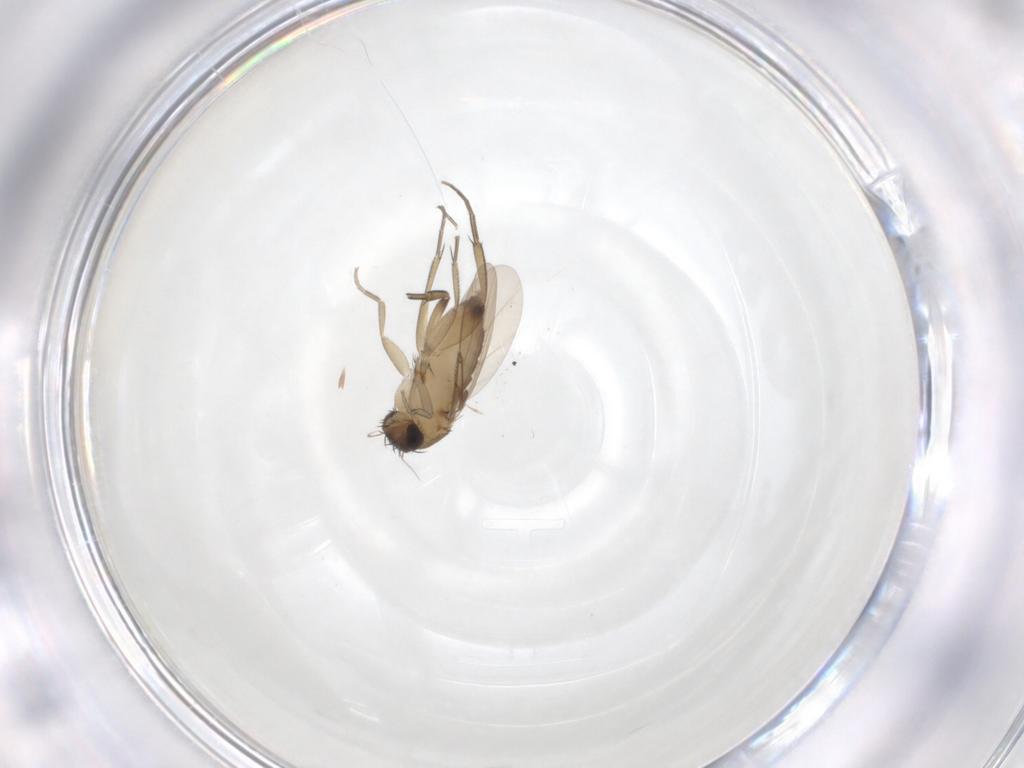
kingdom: Animalia
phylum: Arthropoda
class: Insecta
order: Diptera
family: Phoridae
